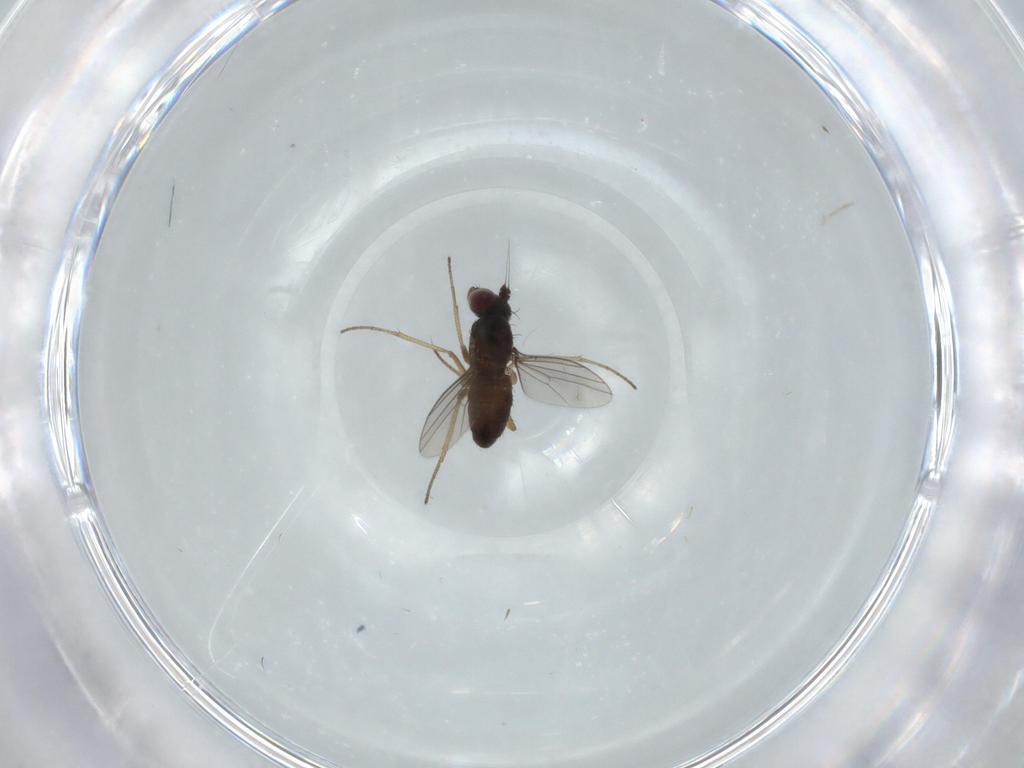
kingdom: Animalia
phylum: Arthropoda
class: Insecta
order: Diptera
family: Dolichopodidae
